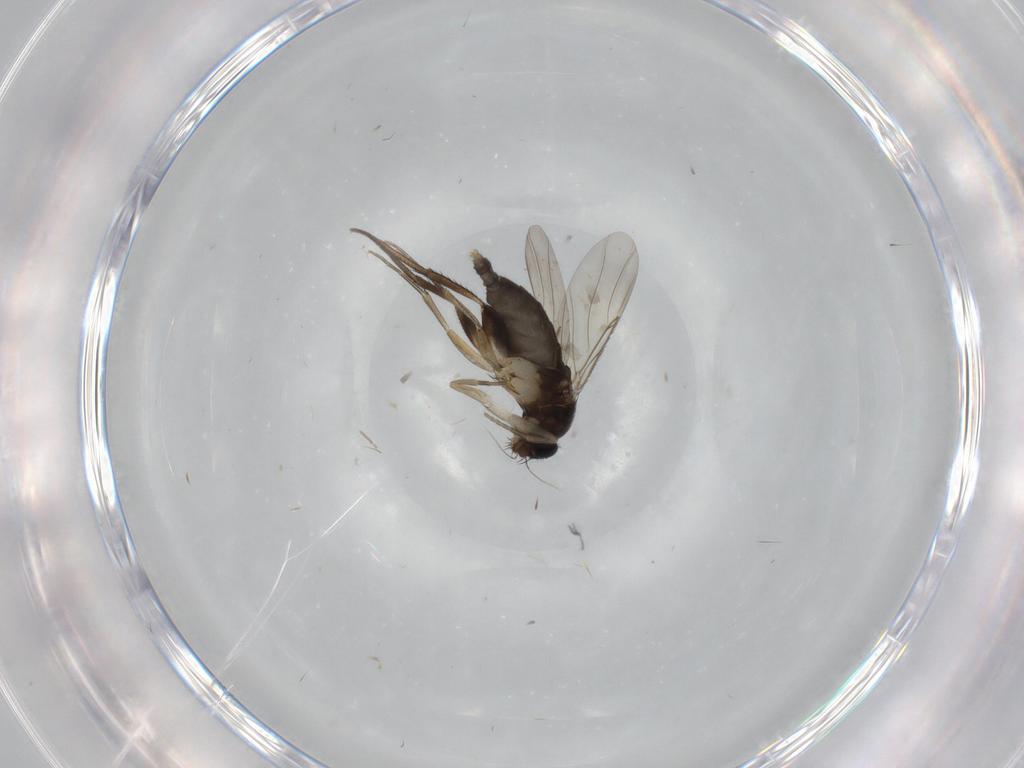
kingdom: Animalia
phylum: Arthropoda
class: Insecta
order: Diptera
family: Phoridae
